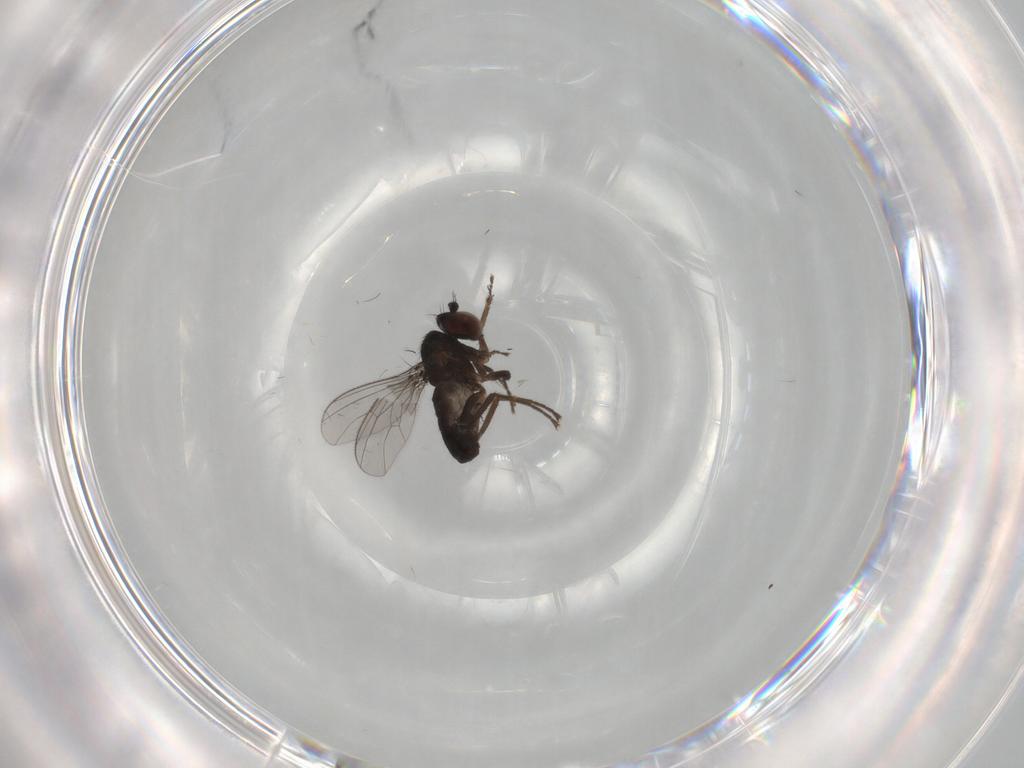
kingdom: Animalia
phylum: Arthropoda
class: Insecta
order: Diptera
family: Dolichopodidae
